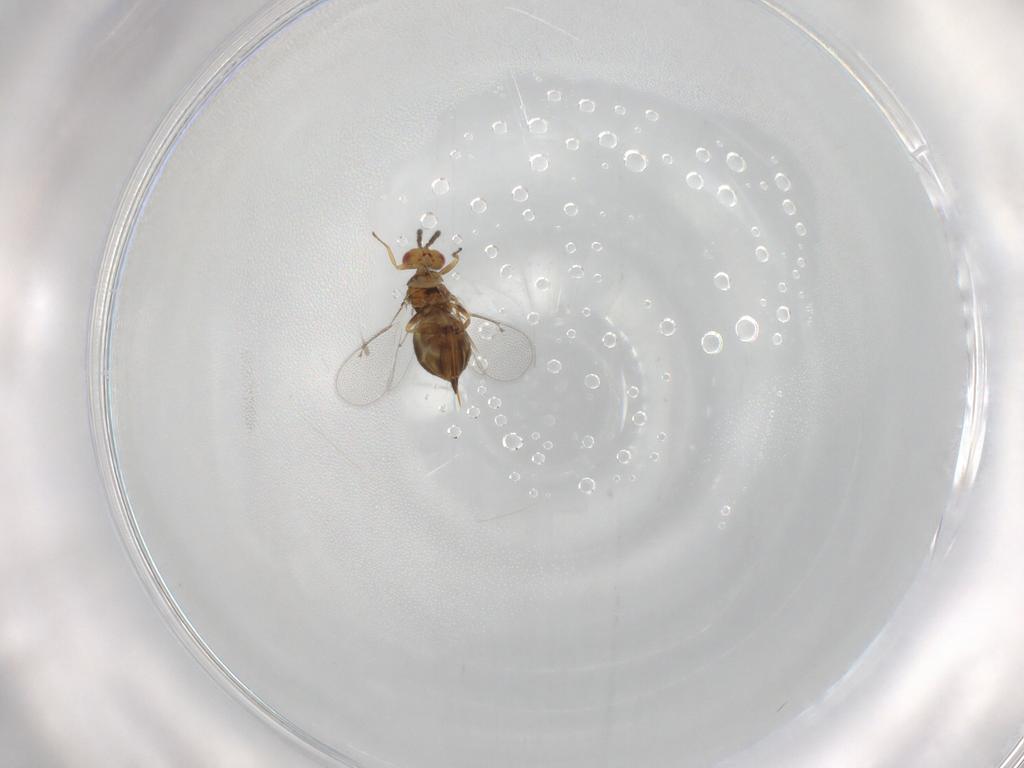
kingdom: Animalia
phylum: Arthropoda
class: Insecta
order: Hymenoptera
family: Eulophidae
